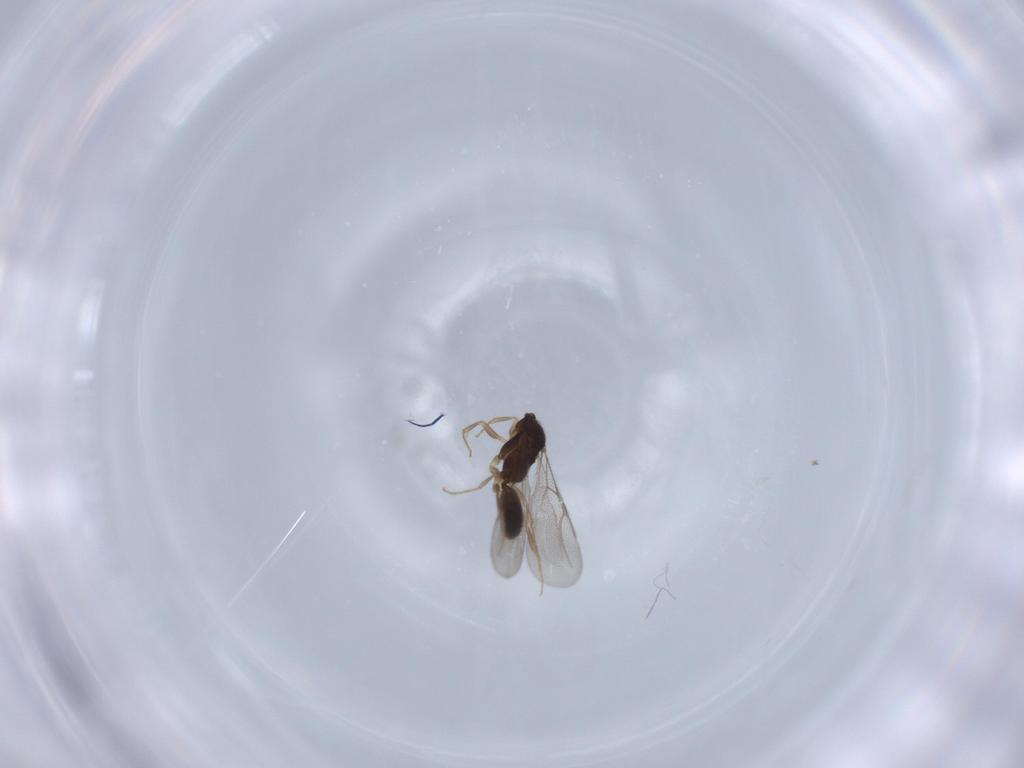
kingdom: Animalia
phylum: Arthropoda
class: Insecta
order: Hymenoptera
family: Bethylidae
